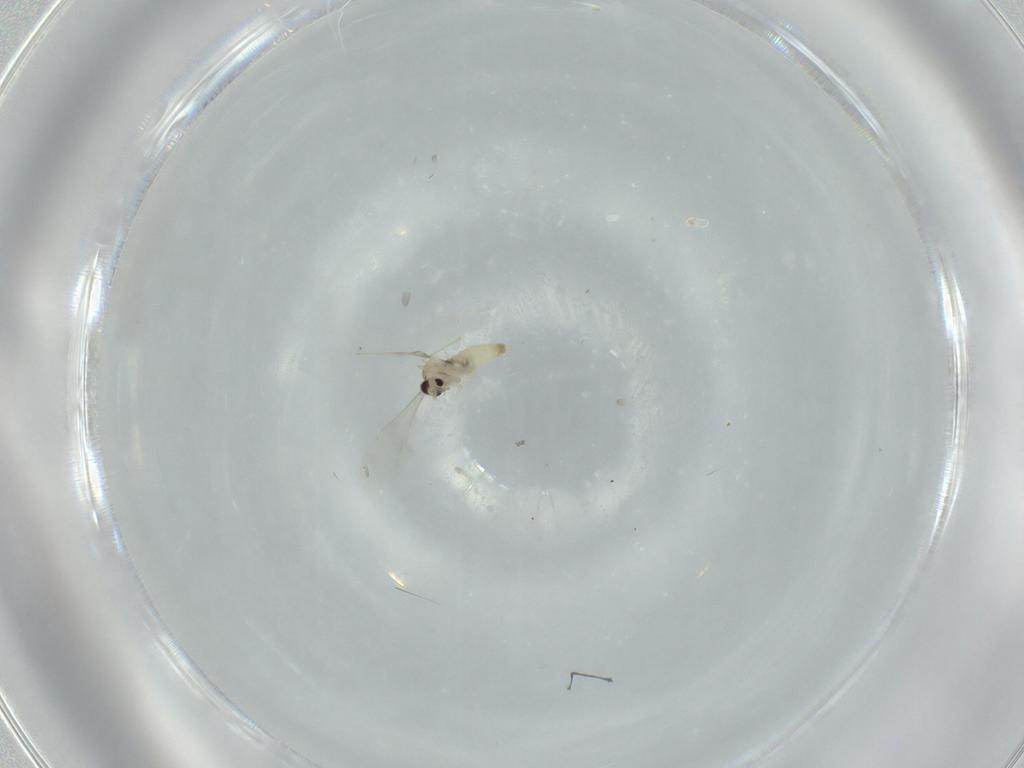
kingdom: Animalia
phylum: Arthropoda
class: Insecta
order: Diptera
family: Cecidomyiidae
